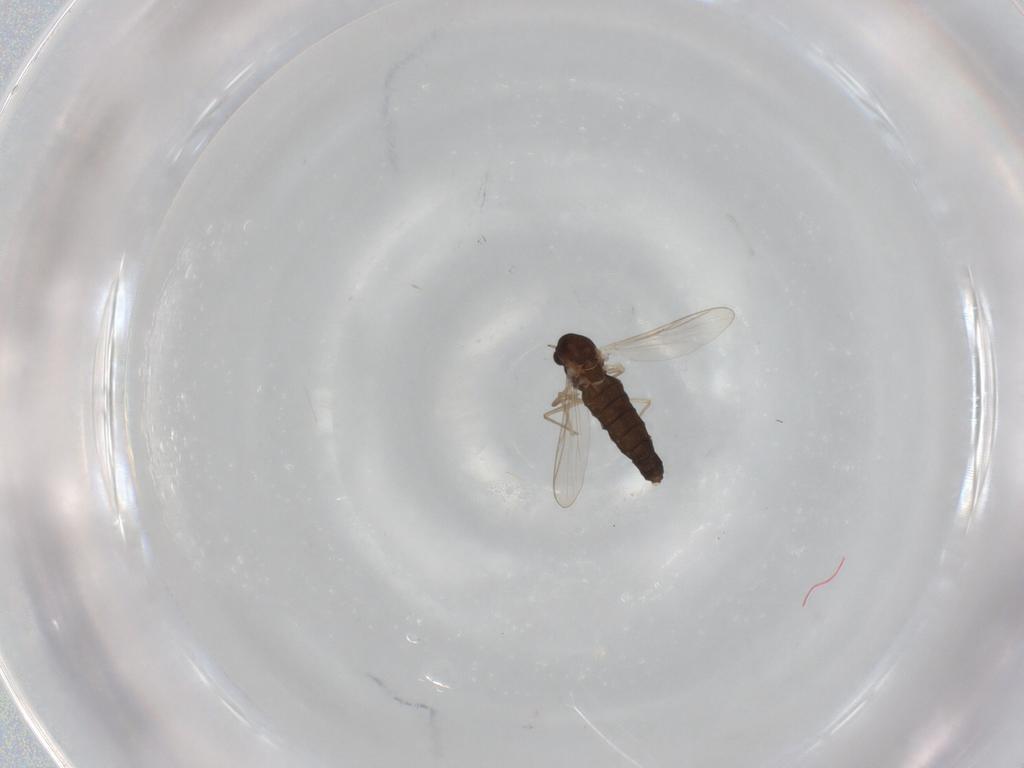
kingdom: Animalia
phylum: Arthropoda
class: Insecta
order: Diptera
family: Chironomidae
